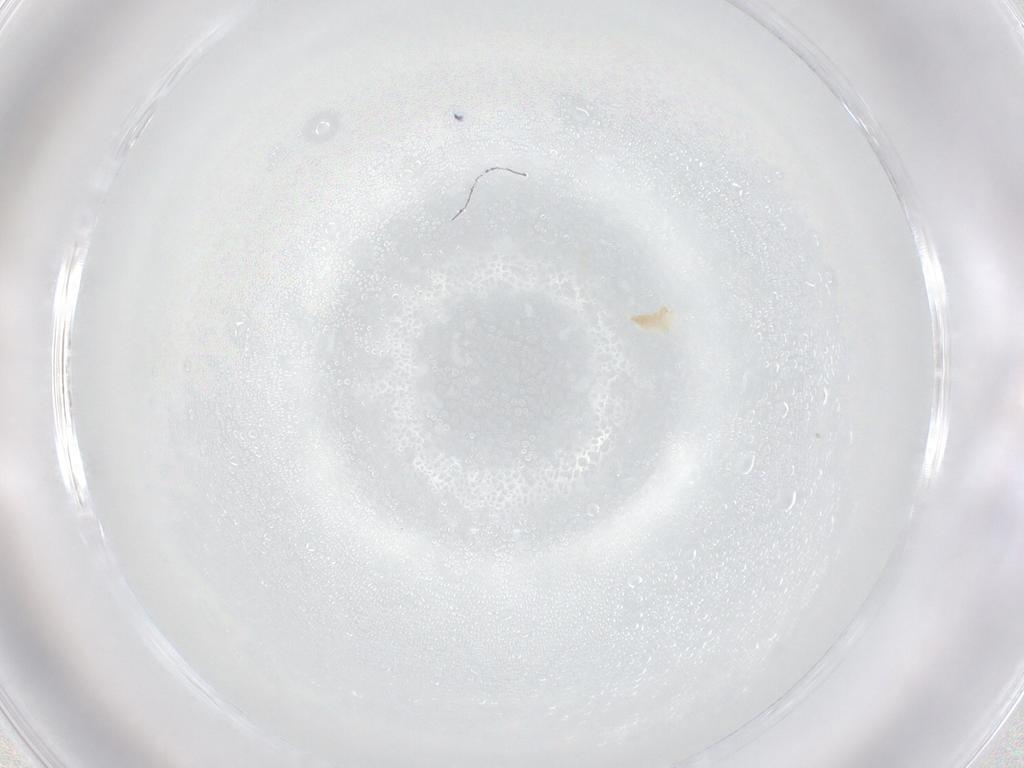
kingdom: Animalia
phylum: Arthropoda
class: Arachnida
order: Trombidiformes
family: Eupodidae
